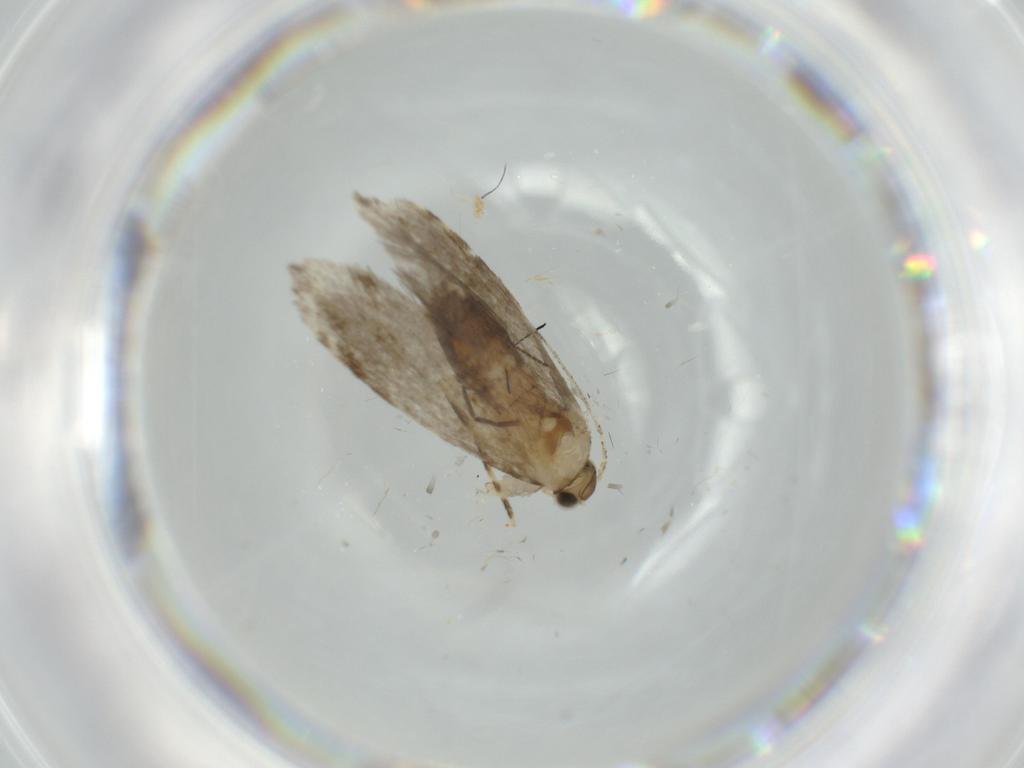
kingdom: Animalia
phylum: Arthropoda
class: Insecta
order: Lepidoptera
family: Tineidae
